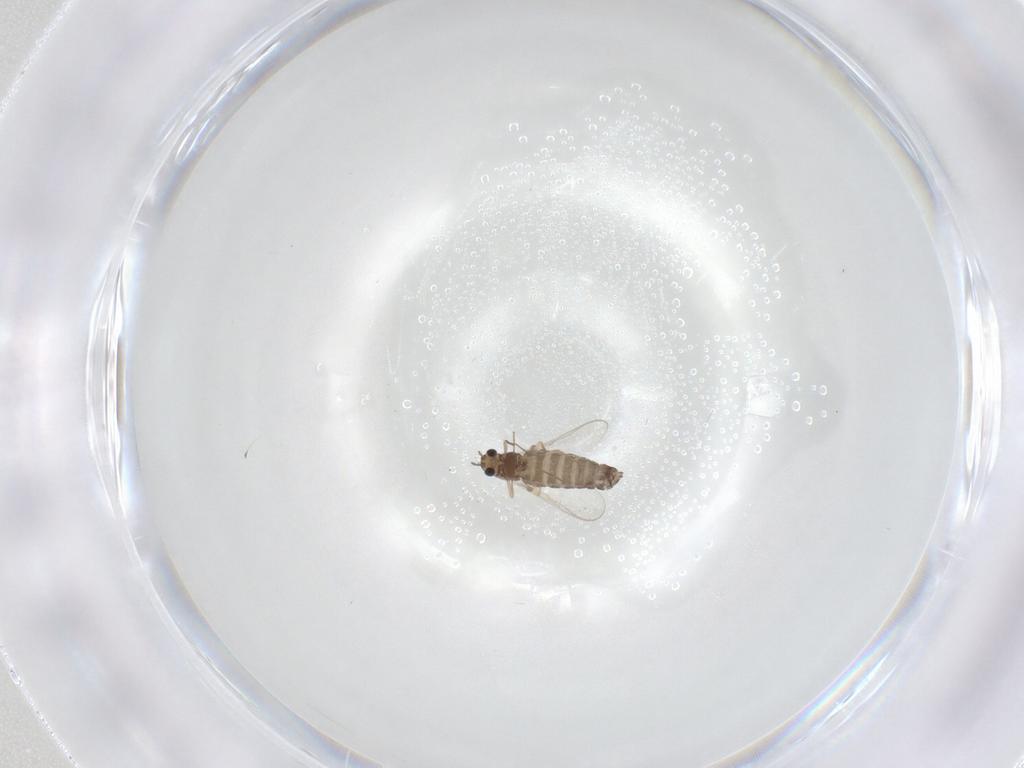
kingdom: Animalia
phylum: Arthropoda
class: Insecta
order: Diptera
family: Chironomidae
